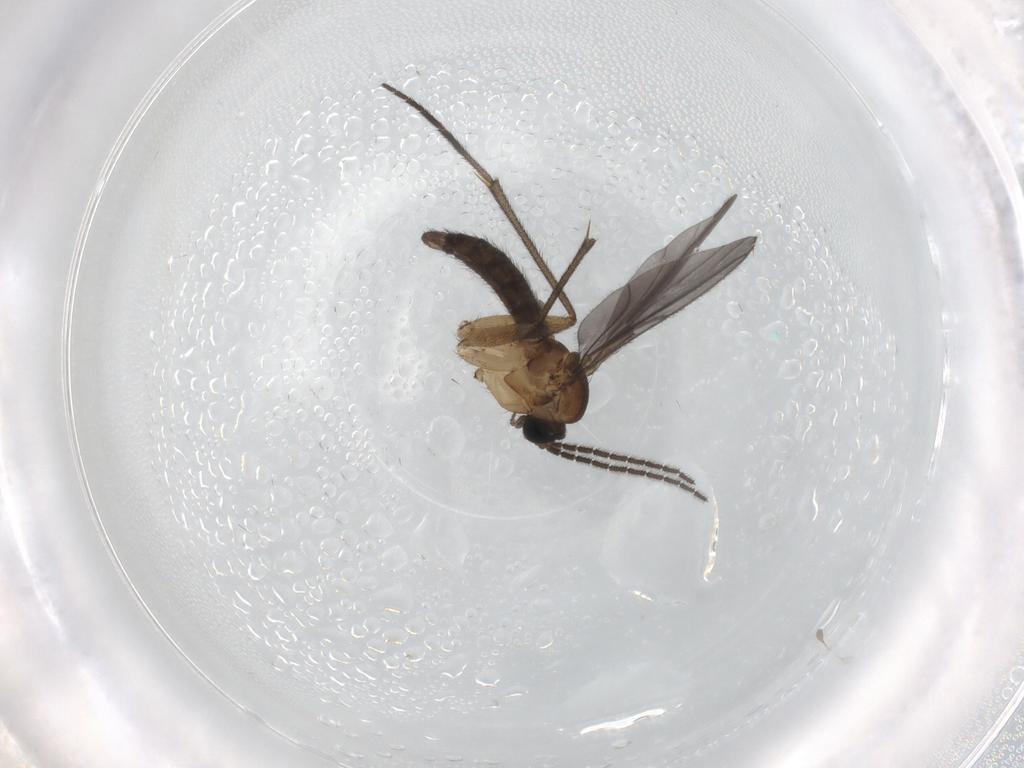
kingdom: Animalia
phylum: Arthropoda
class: Insecta
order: Diptera
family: Sciaridae
